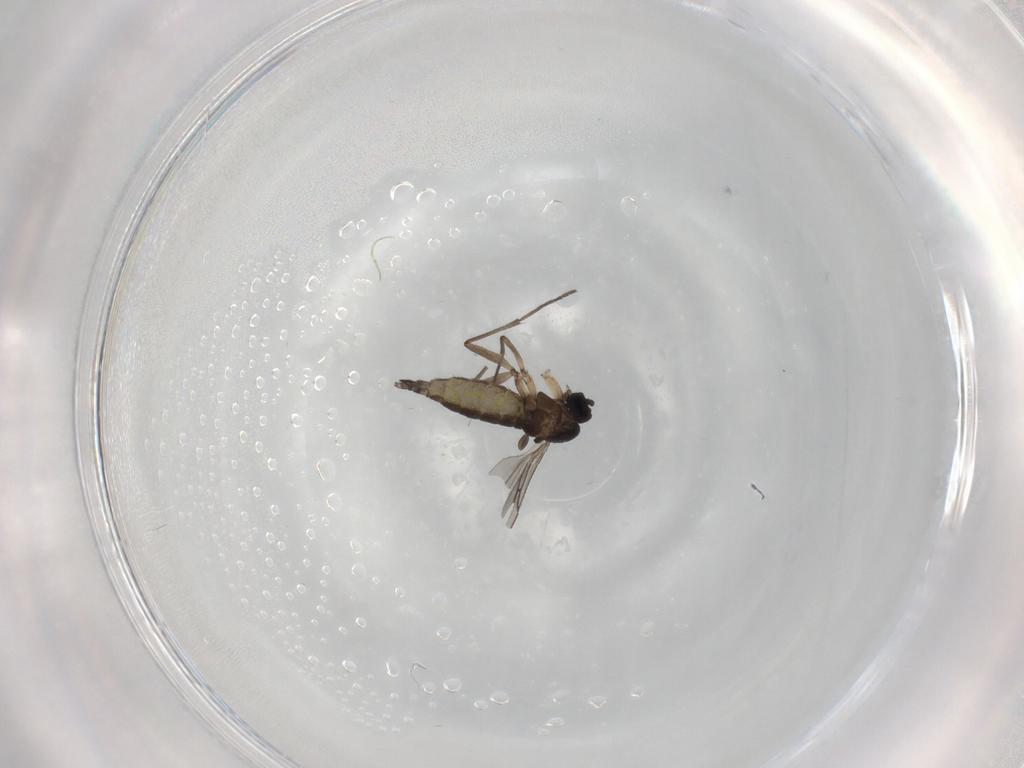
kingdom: Animalia
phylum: Arthropoda
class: Insecta
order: Diptera
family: Sciaridae
